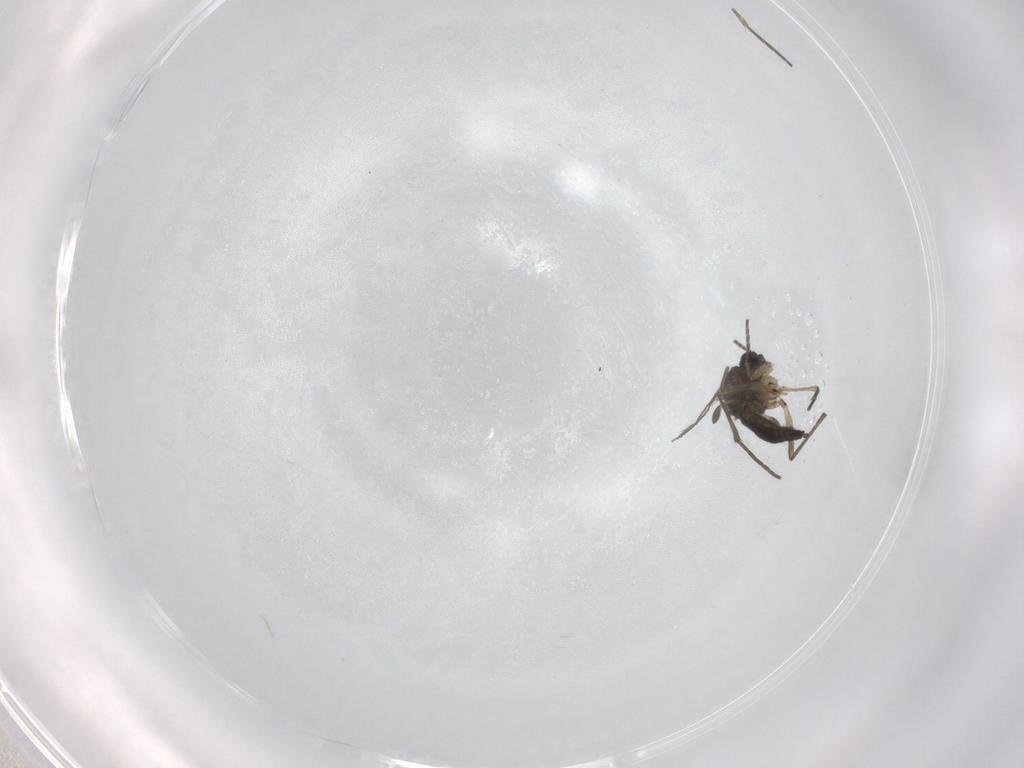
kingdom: Animalia
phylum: Arthropoda
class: Insecta
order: Diptera
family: Sciaridae
